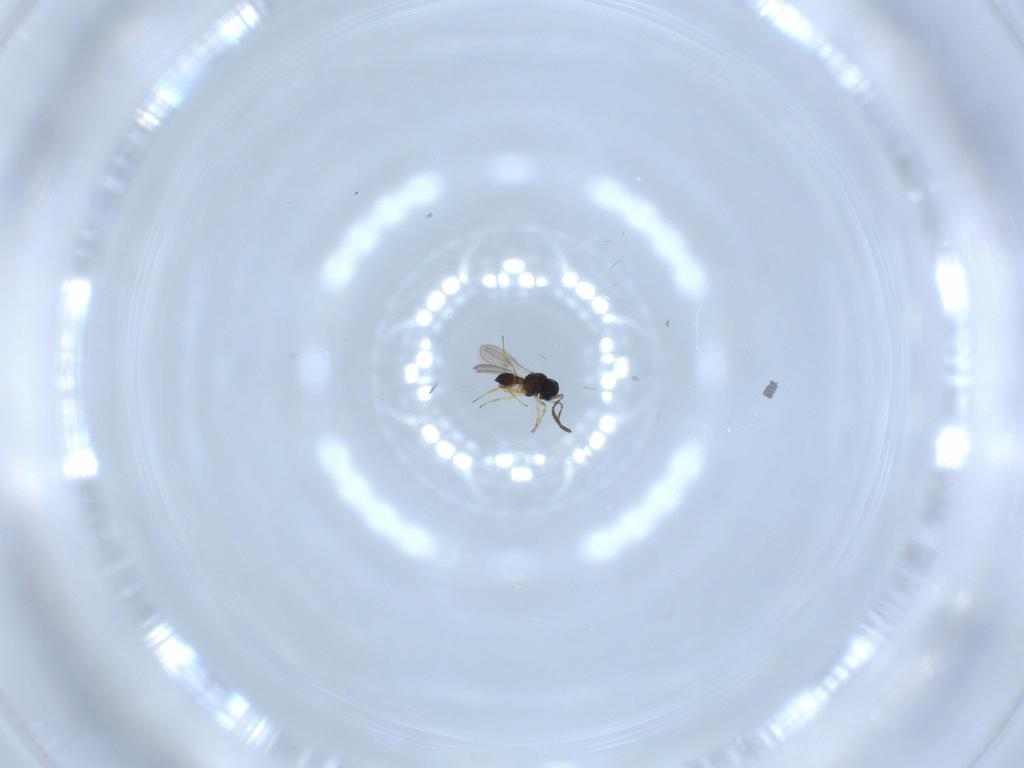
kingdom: Animalia
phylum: Arthropoda
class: Insecta
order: Hymenoptera
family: Scelionidae
